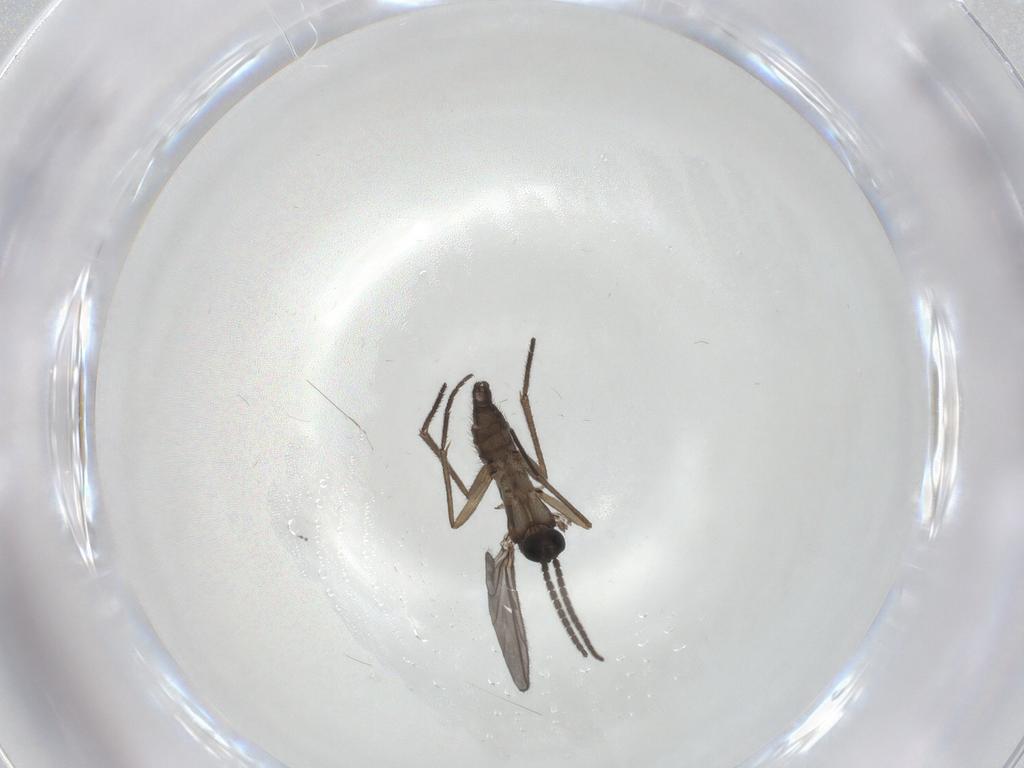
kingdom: Animalia
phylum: Arthropoda
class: Insecta
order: Diptera
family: Sciaridae
